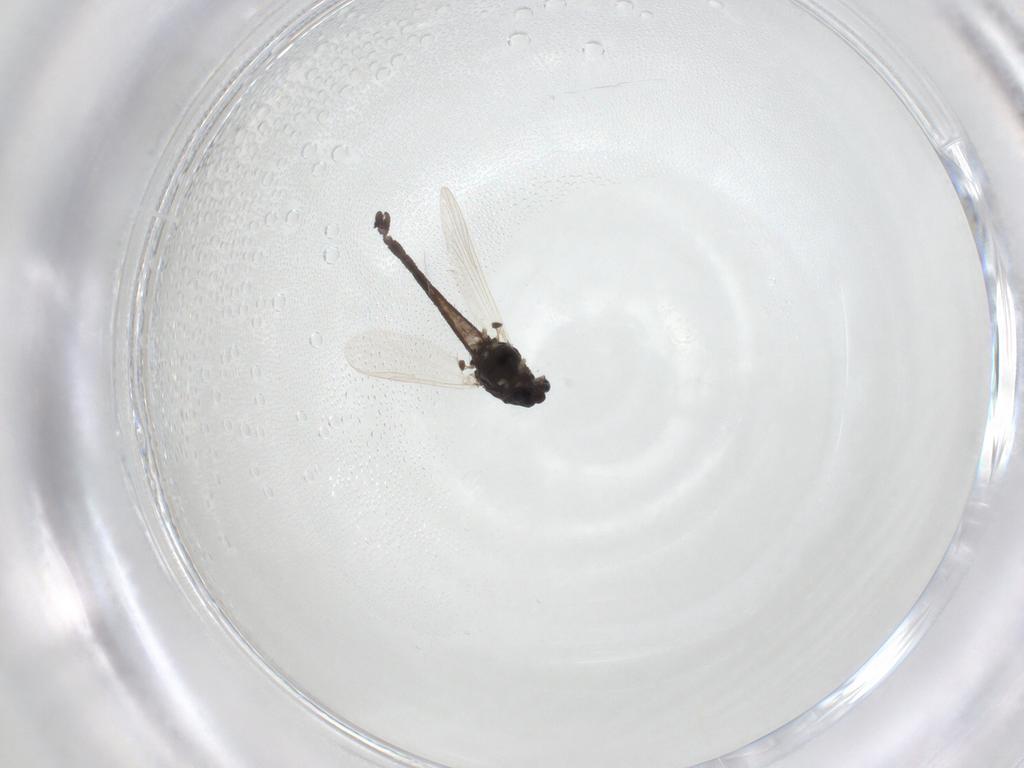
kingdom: Animalia
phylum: Arthropoda
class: Insecta
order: Diptera
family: Chironomidae
